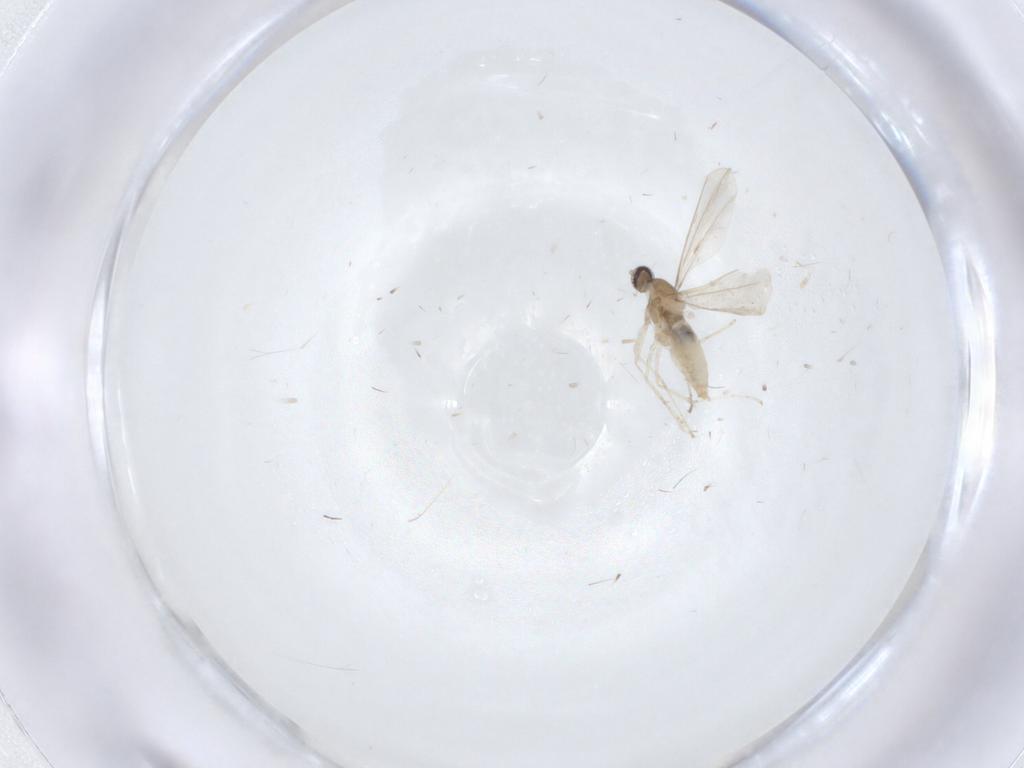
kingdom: Animalia
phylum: Arthropoda
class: Insecta
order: Diptera
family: Cecidomyiidae
